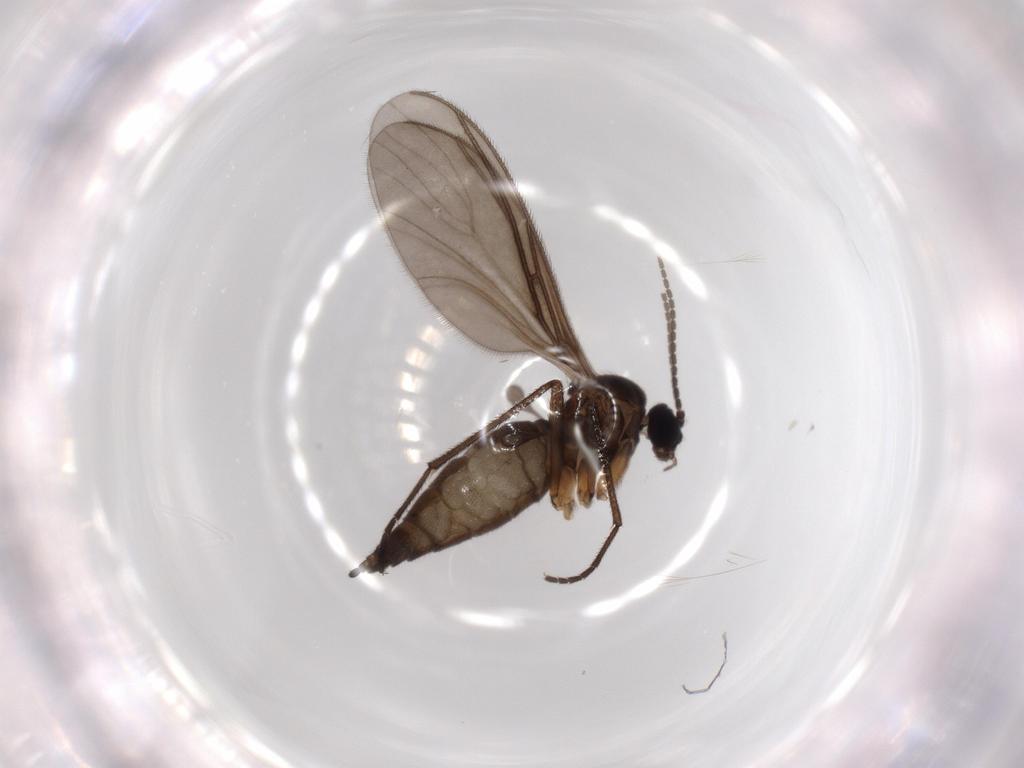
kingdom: Animalia
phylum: Arthropoda
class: Insecta
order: Diptera
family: Sciaridae
